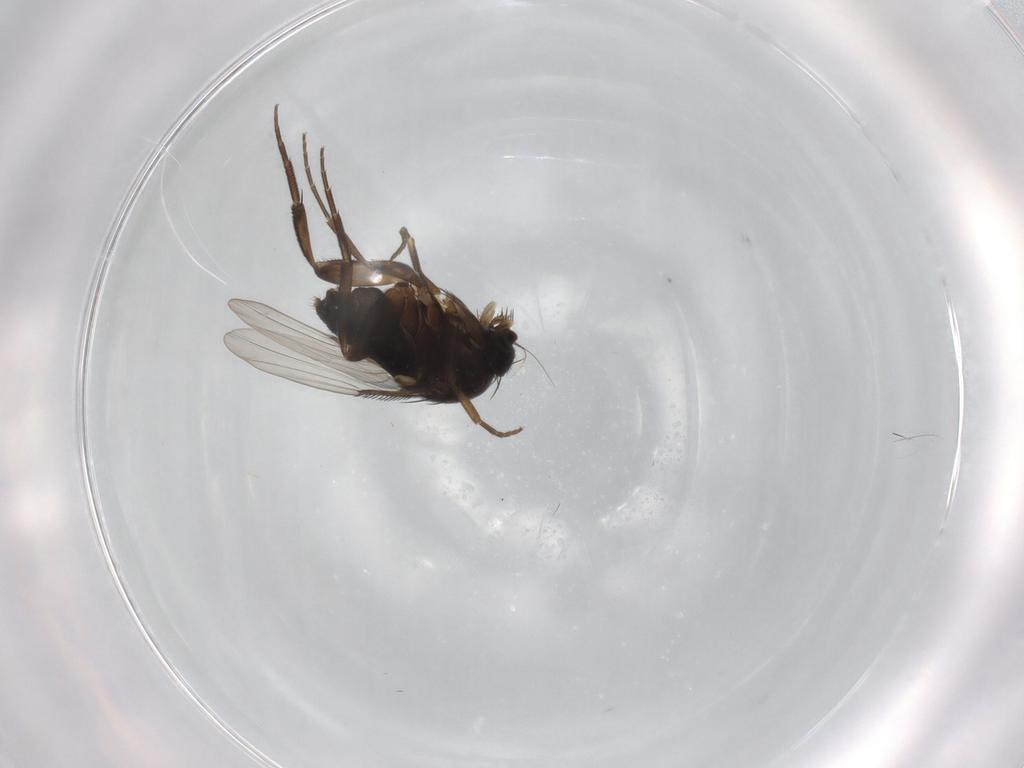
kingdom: Animalia
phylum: Arthropoda
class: Insecta
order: Diptera
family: Phoridae
